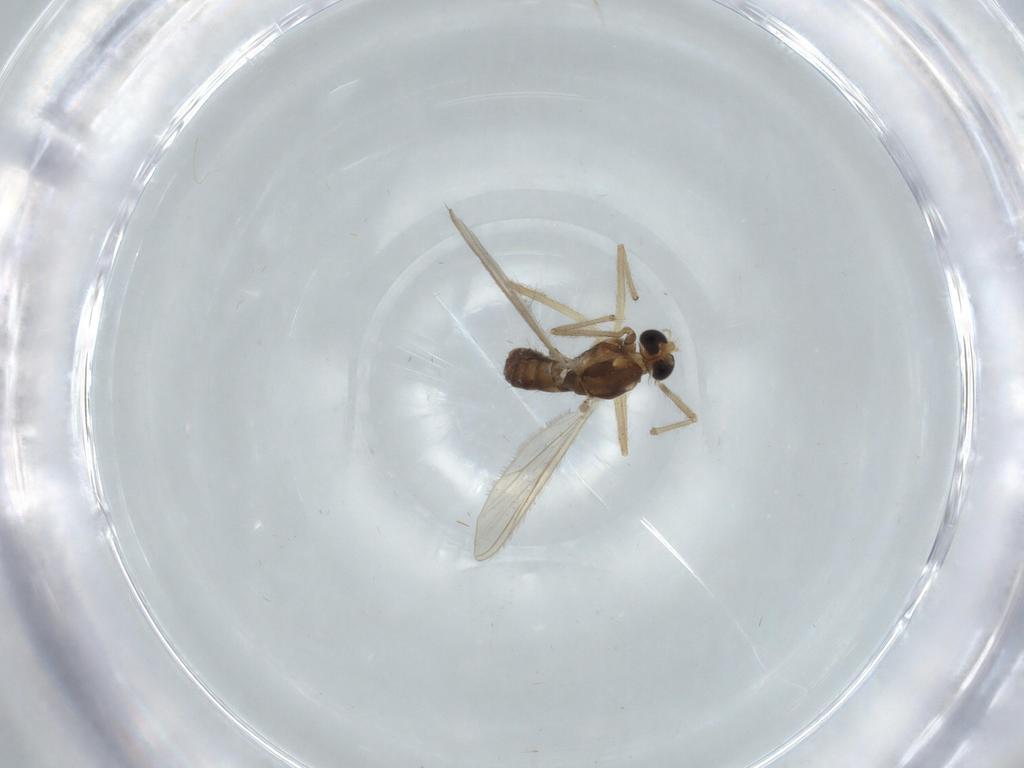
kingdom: Animalia
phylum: Arthropoda
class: Insecta
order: Diptera
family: Chironomidae
